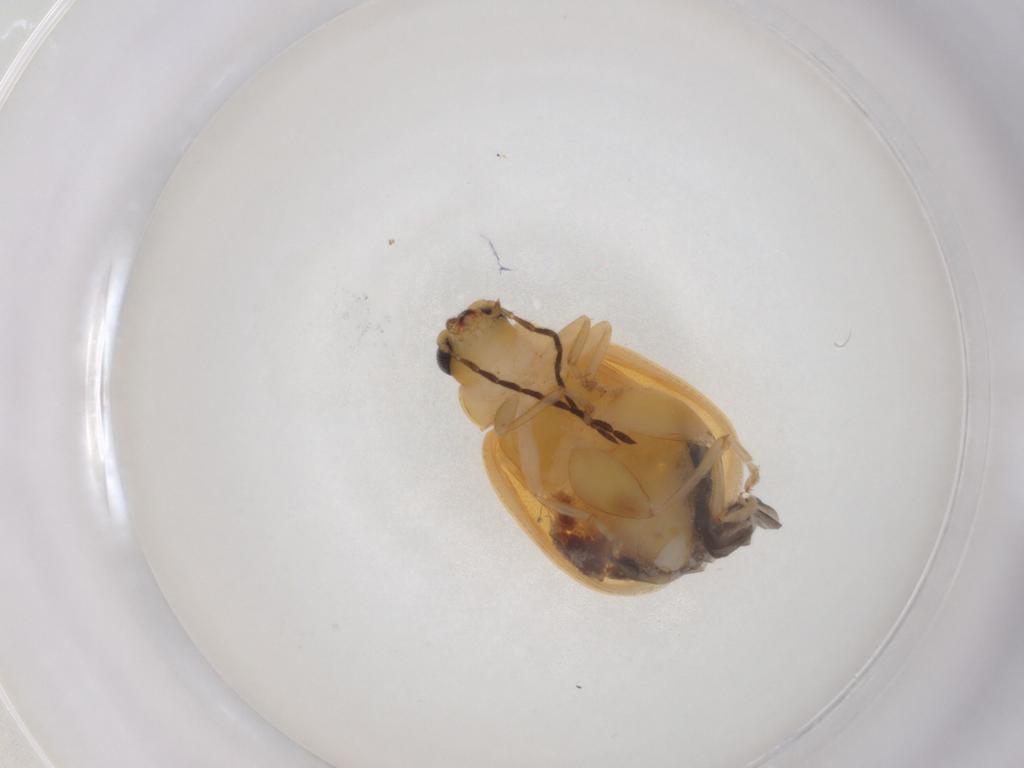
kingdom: Animalia
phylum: Arthropoda
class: Insecta
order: Coleoptera
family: Chrysomelidae
